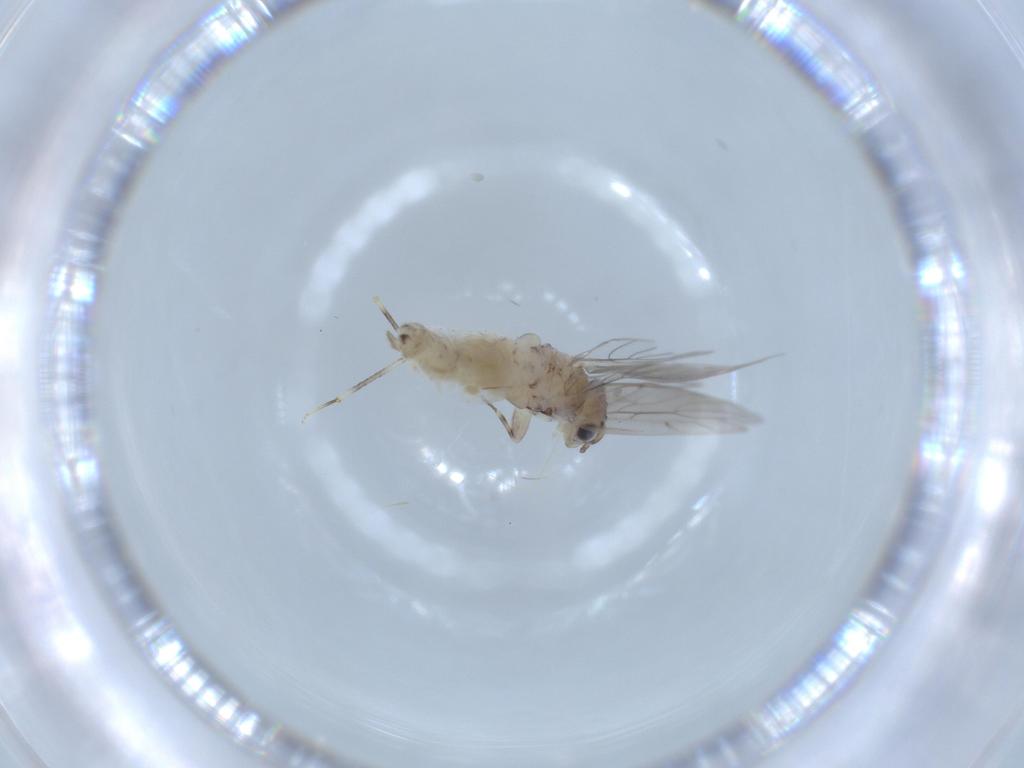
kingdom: Animalia
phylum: Arthropoda
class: Insecta
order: Psocodea
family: Lepidopsocidae
